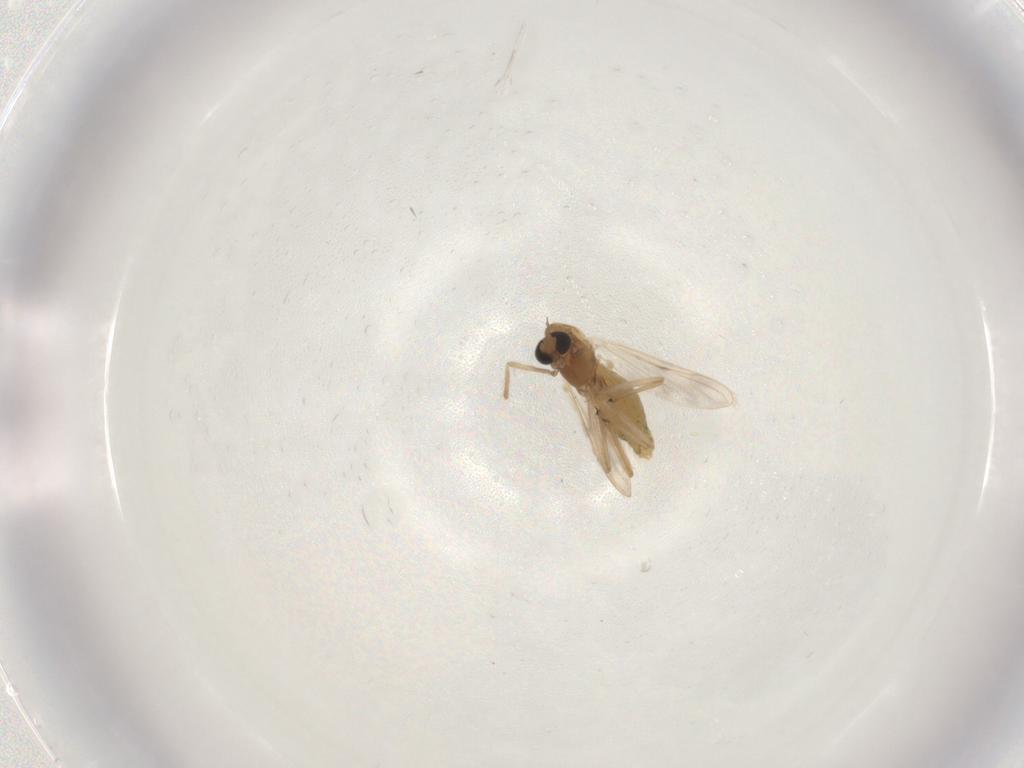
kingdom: Animalia
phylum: Arthropoda
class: Insecta
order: Diptera
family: Chironomidae
